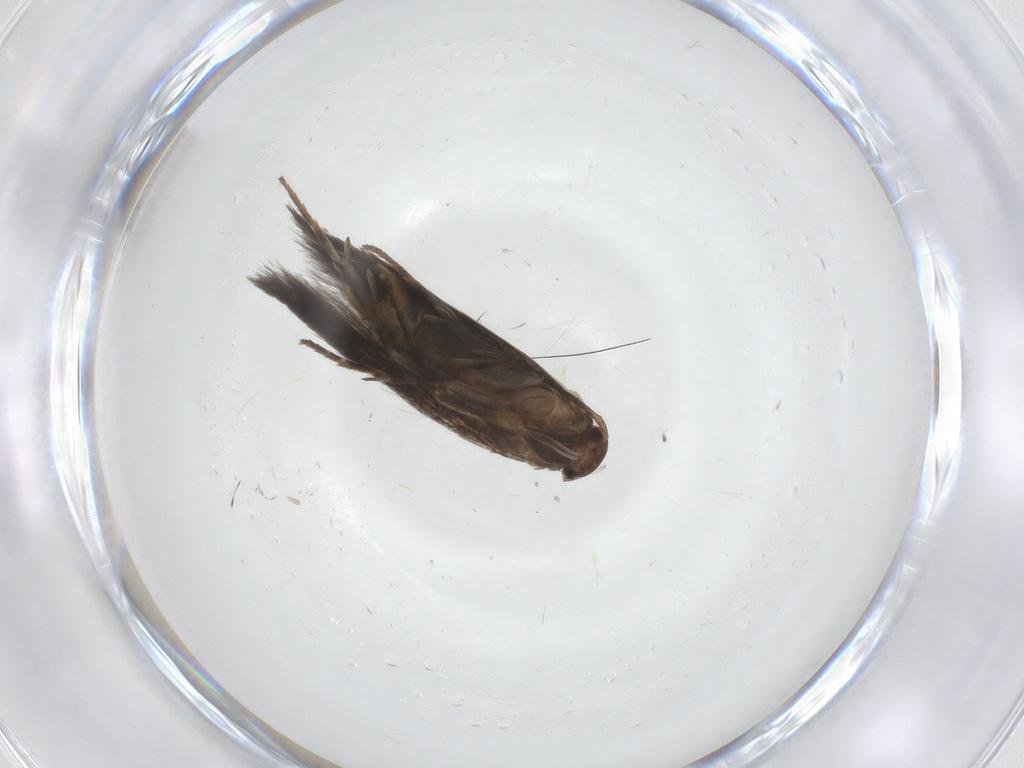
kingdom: Animalia
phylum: Arthropoda
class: Insecta
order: Lepidoptera
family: Elachistidae
